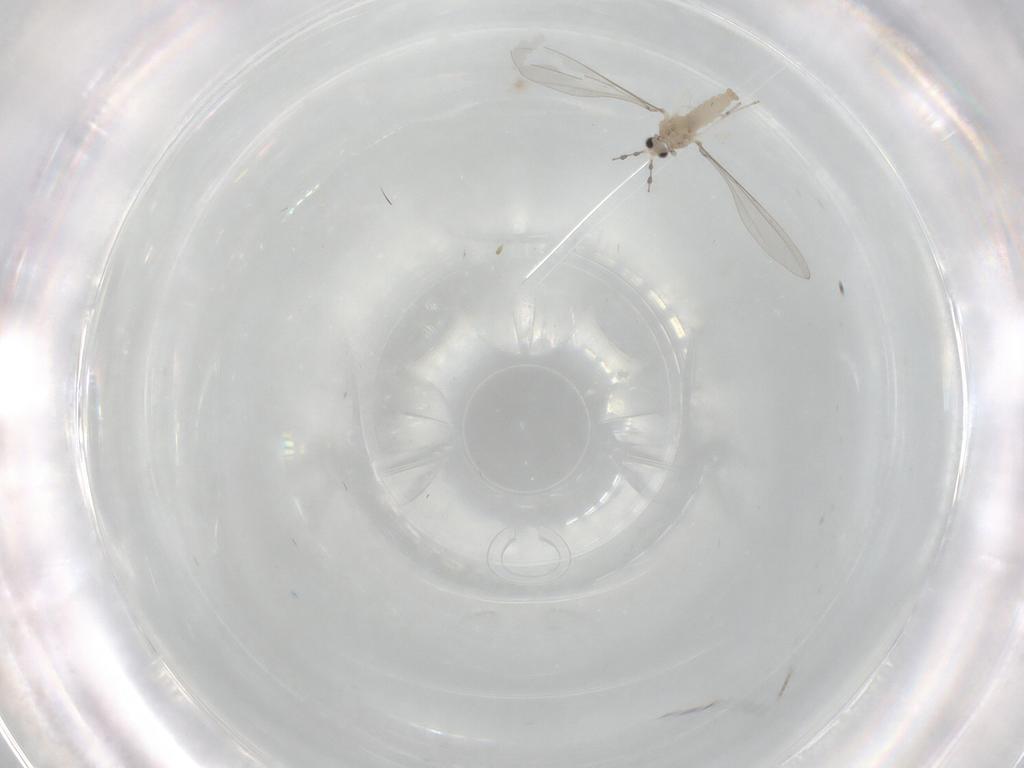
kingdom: Animalia
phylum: Arthropoda
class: Insecta
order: Diptera
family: Cecidomyiidae
